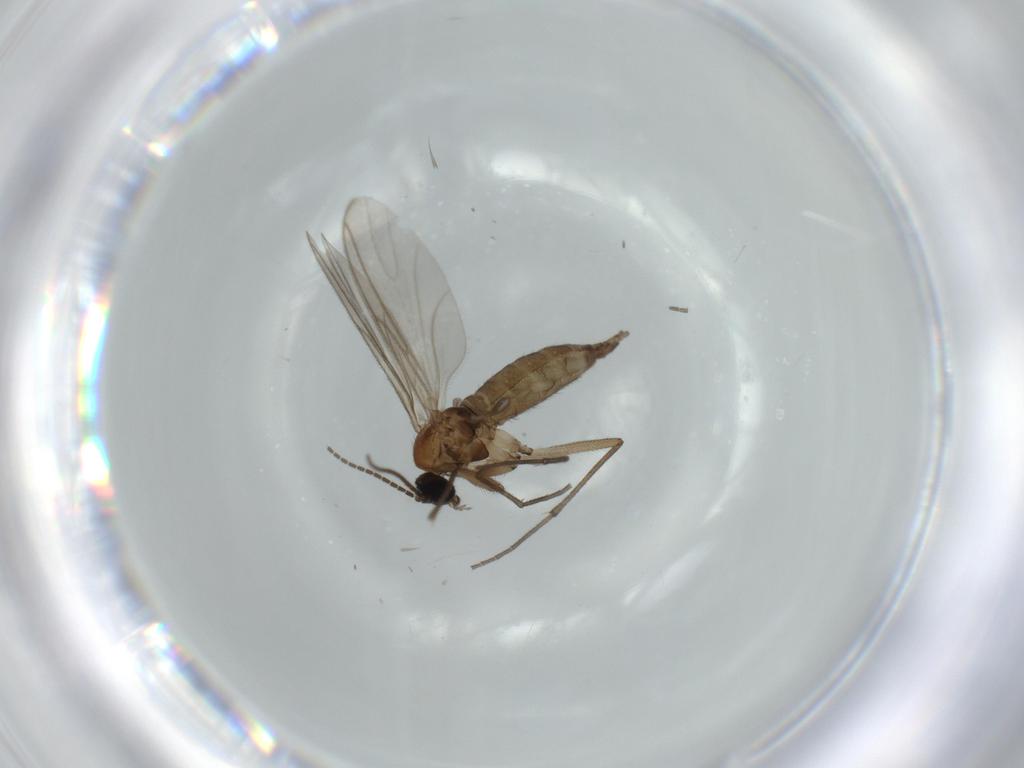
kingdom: Animalia
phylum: Arthropoda
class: Insecta
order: Diptera
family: Sciaridae
